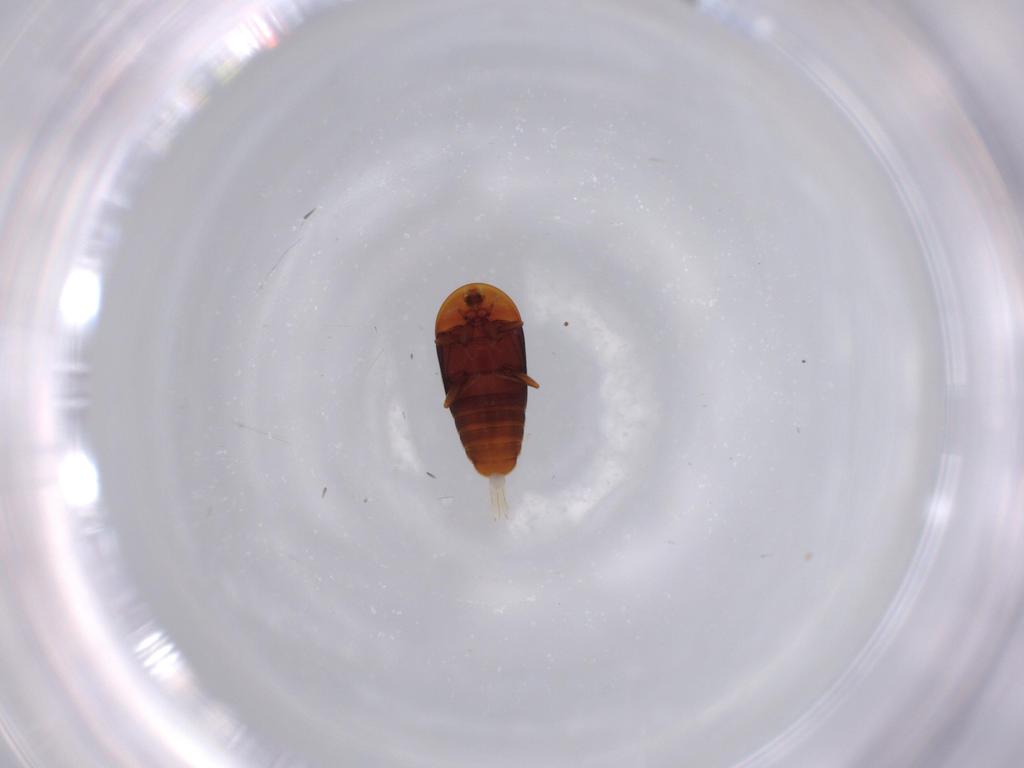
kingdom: Animalia
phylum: Arthropoda
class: Insecta
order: Coleoptera
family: Corylophidae
